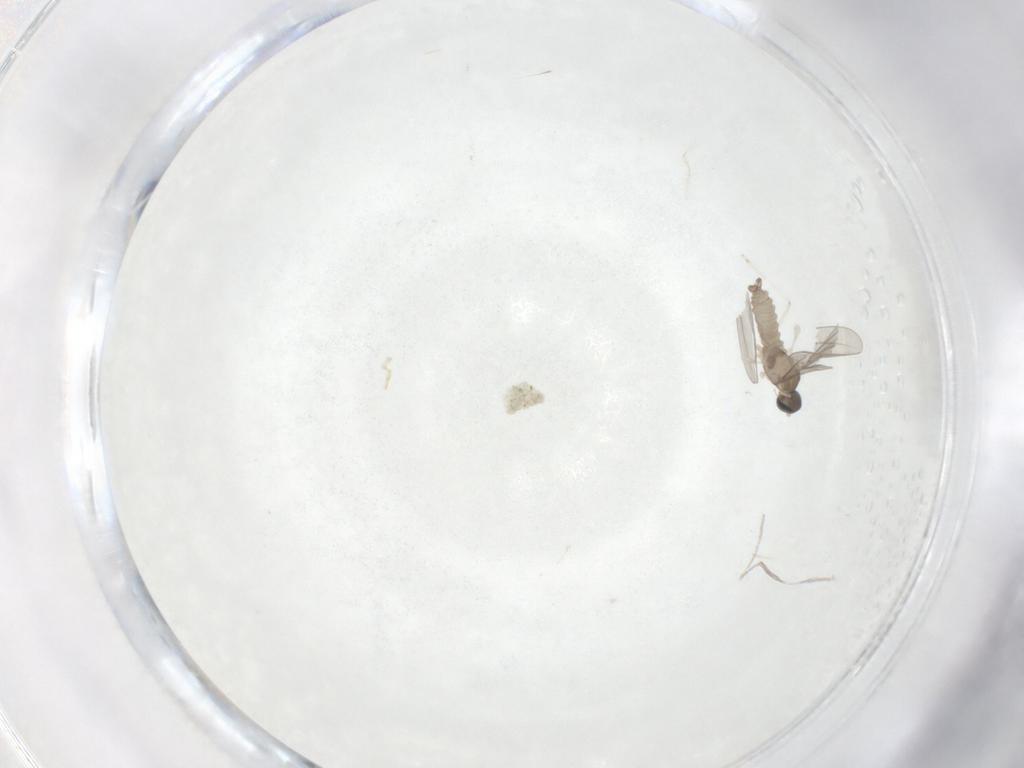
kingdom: Animalia
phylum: Arthropoda
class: Insecta
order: Diptera
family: Cecidomyiidae
